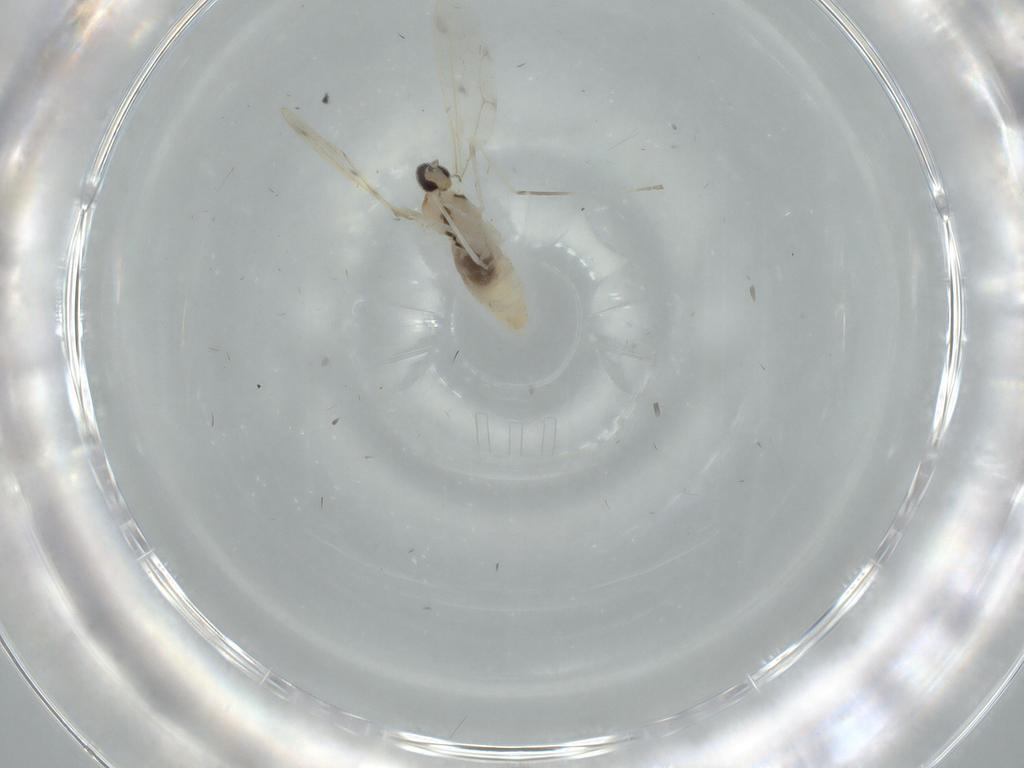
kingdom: Animalia
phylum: Arthropoda
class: Insecta
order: Diptera
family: Cecidomyiidae
